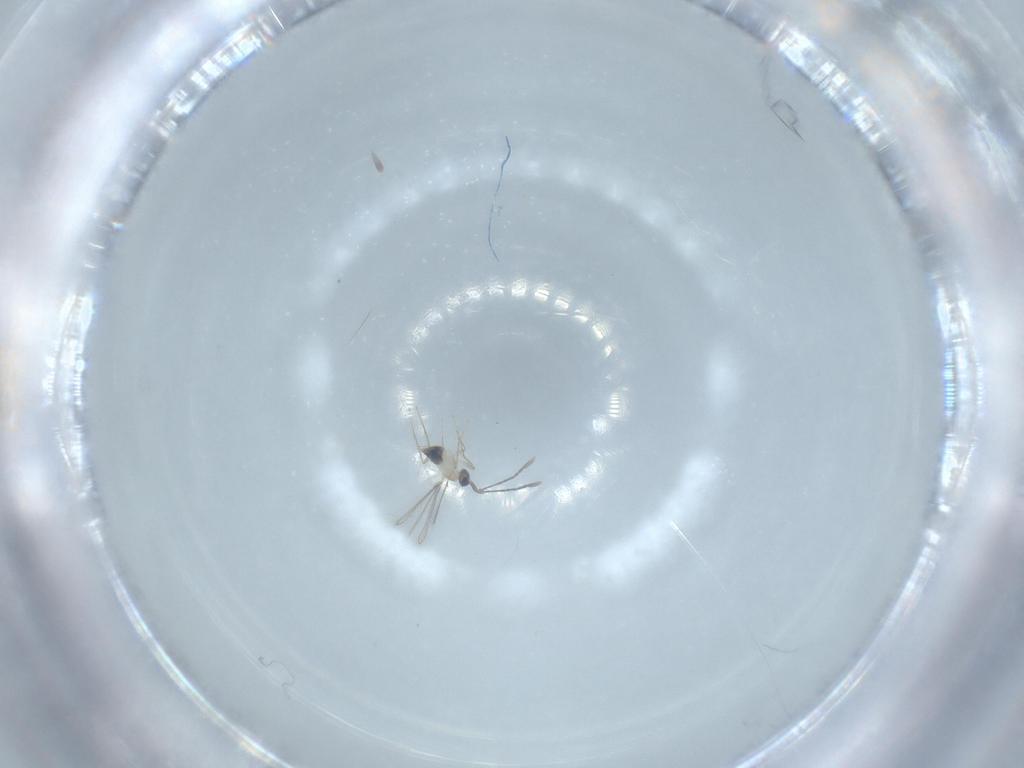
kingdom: Animalia
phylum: Arthropoda
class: Insecta
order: Hymenoptera
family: Mymaridae
